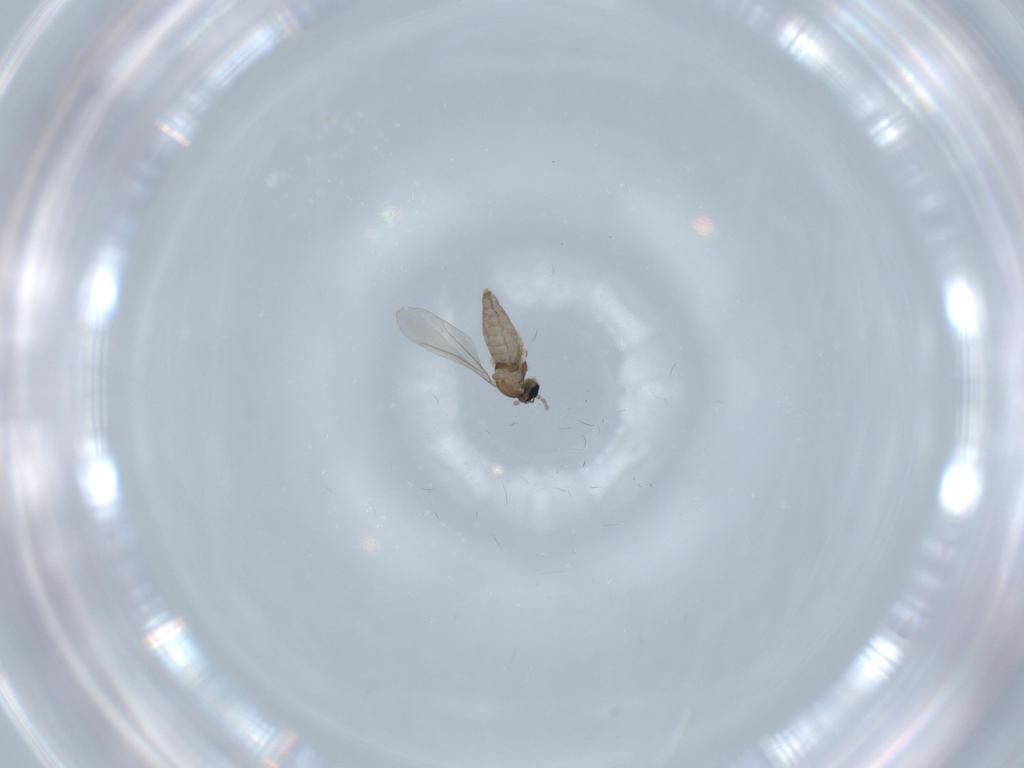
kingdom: Animalia
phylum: Arthropoda
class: Insecta
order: Diptera
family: Cecidomyiidae
